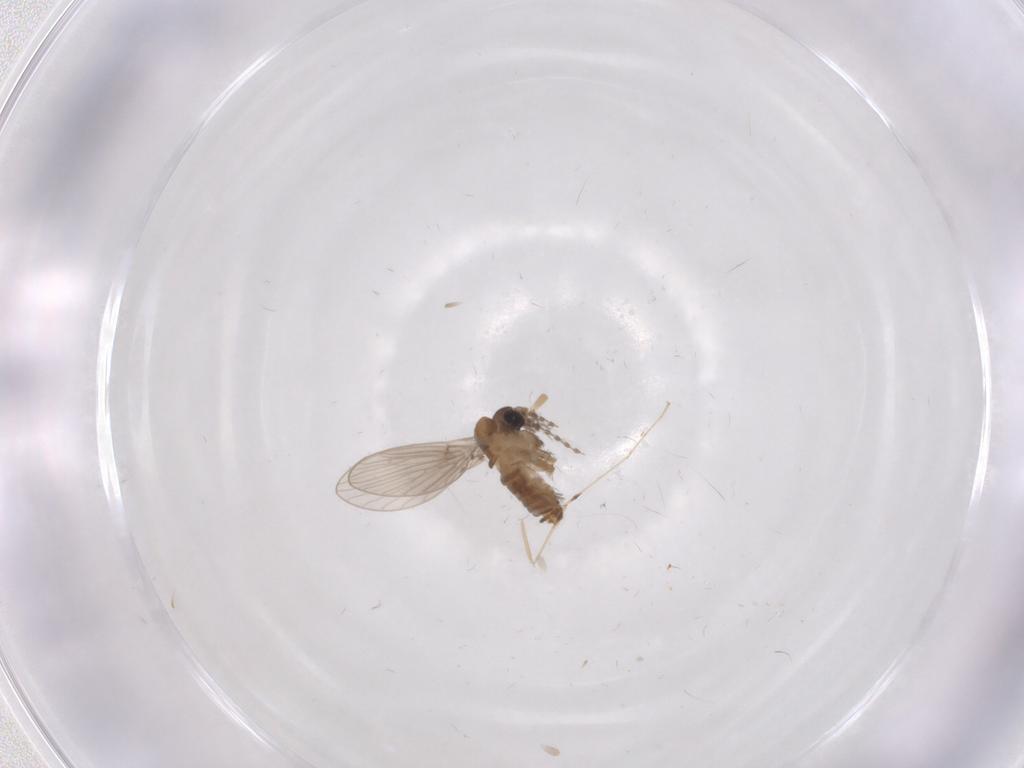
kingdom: Animalia
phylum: Arthropoda
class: Insecta
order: Diptera
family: Psychodidae
